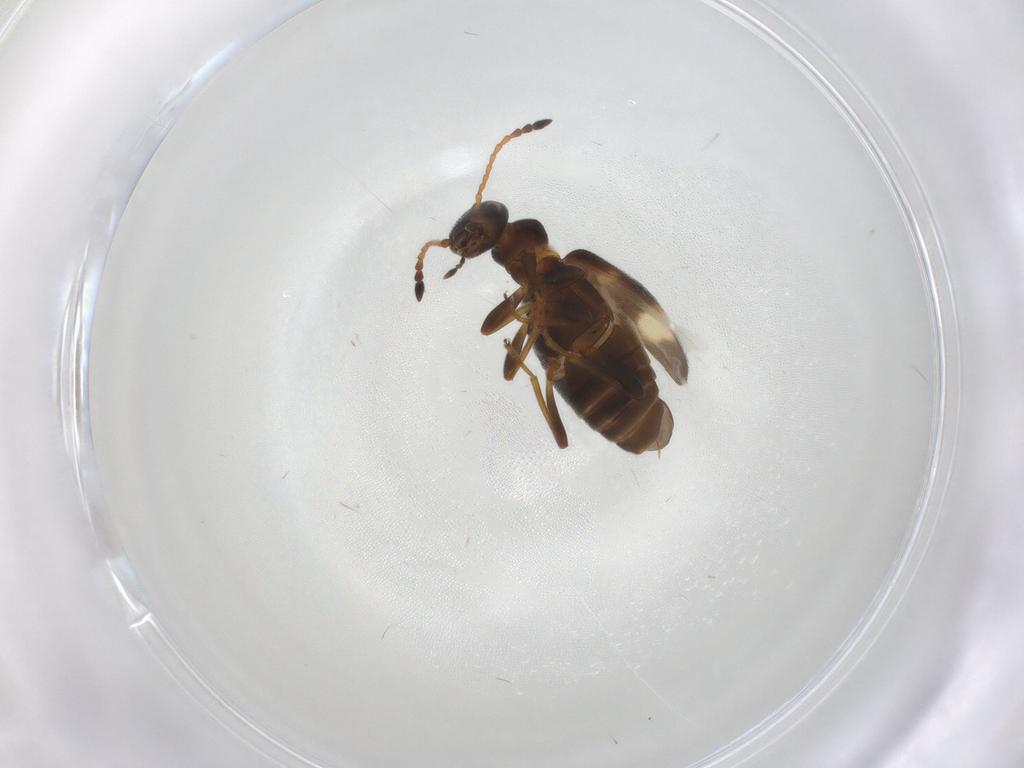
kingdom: Animalia
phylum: Arthropoda
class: Insecta
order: Coleoptera
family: Anthicidae
